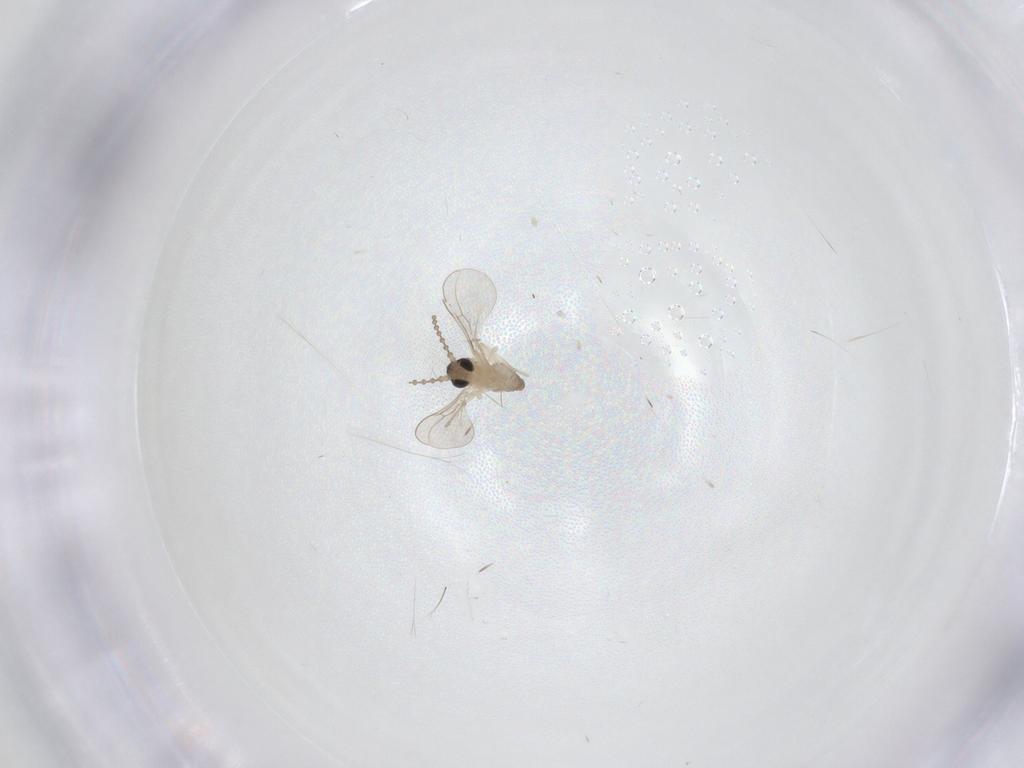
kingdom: Animalia
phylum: Arthropoda
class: Insecta
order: Diptera
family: Cecidomyiidae
